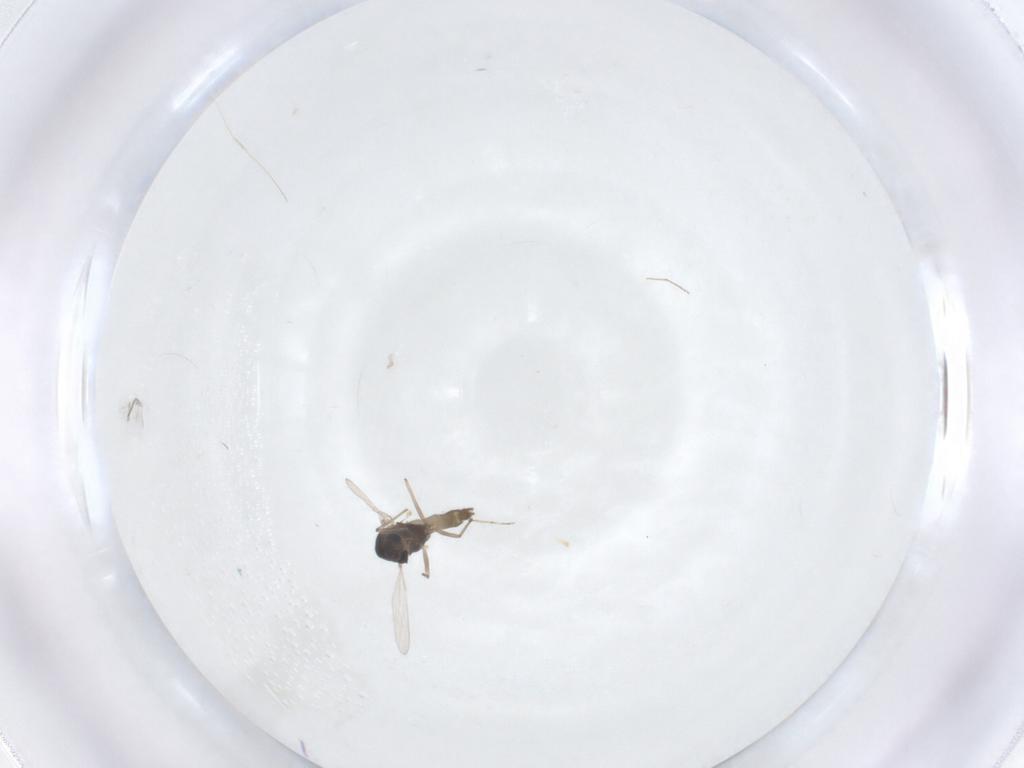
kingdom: Animalia
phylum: Arthropoda
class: Insecta
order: Diptera
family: Chironomidae
